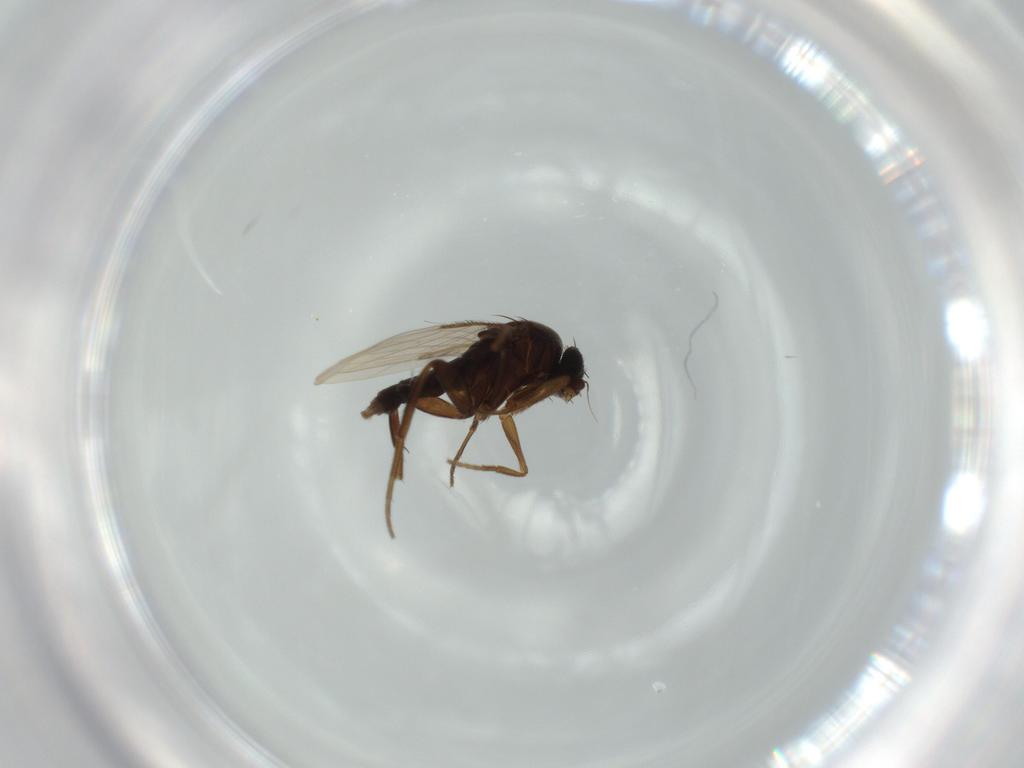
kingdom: Animalia
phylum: Arthropoda
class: Insecta
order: Diptera
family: Phoridae
